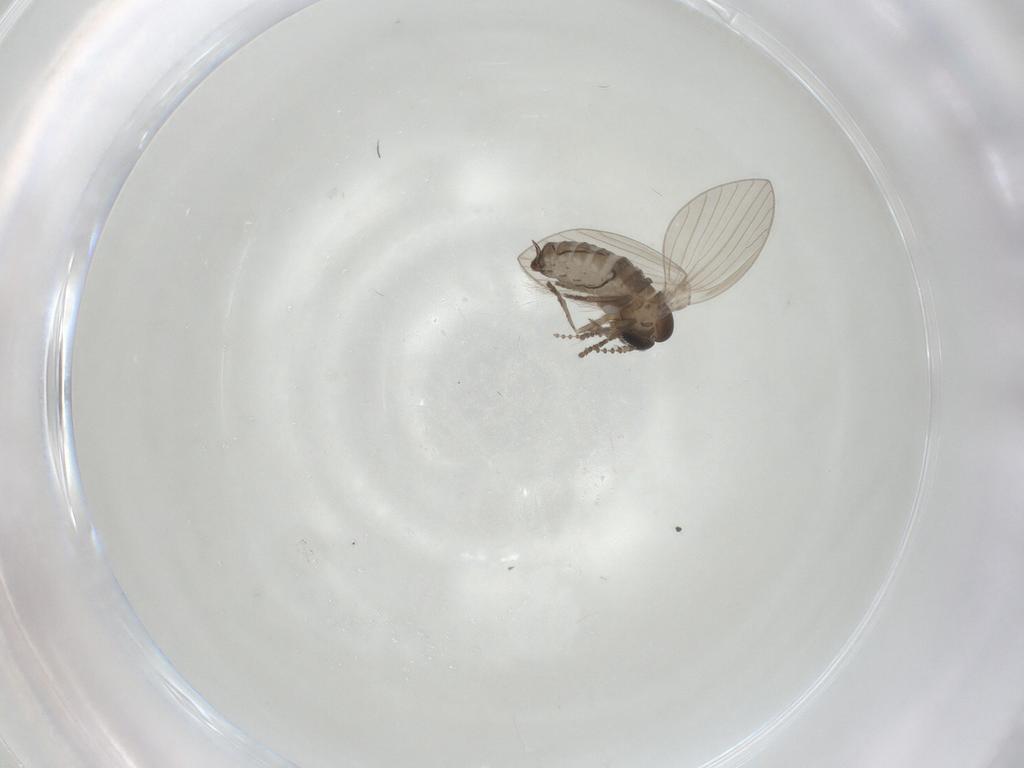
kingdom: Animalia
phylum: Arthropoda
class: Insecta
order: Diptera
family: Psychodidae
